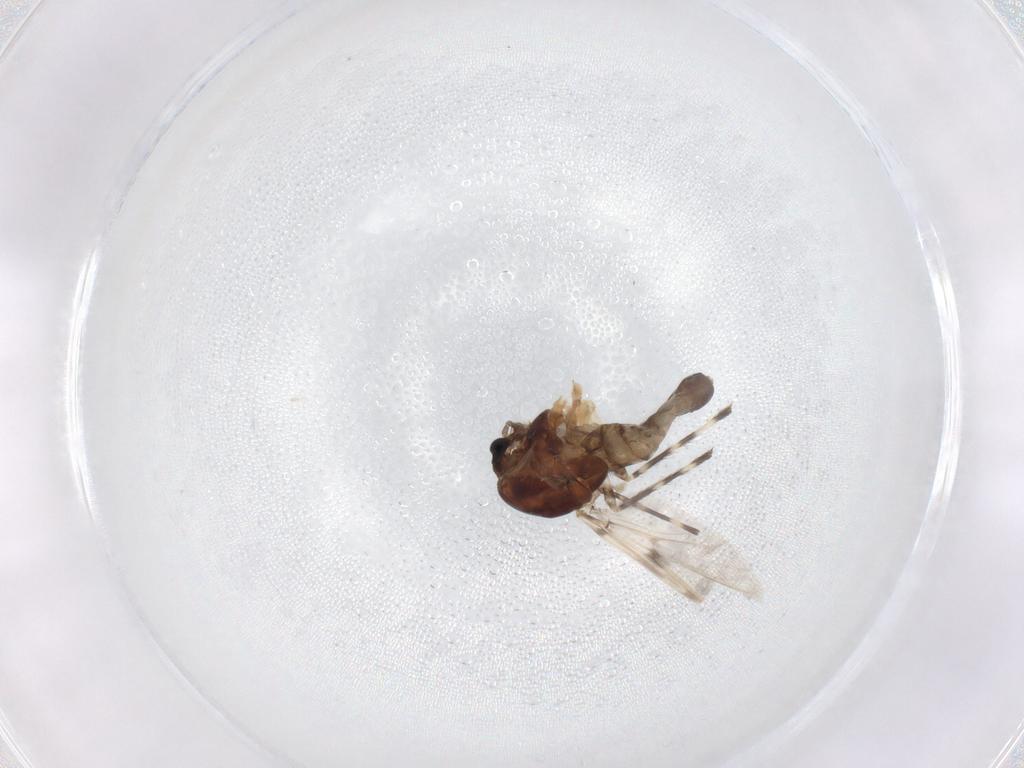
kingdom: Animalia
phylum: Arthropoda
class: Insecta
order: Diptera
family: Chironomidae
